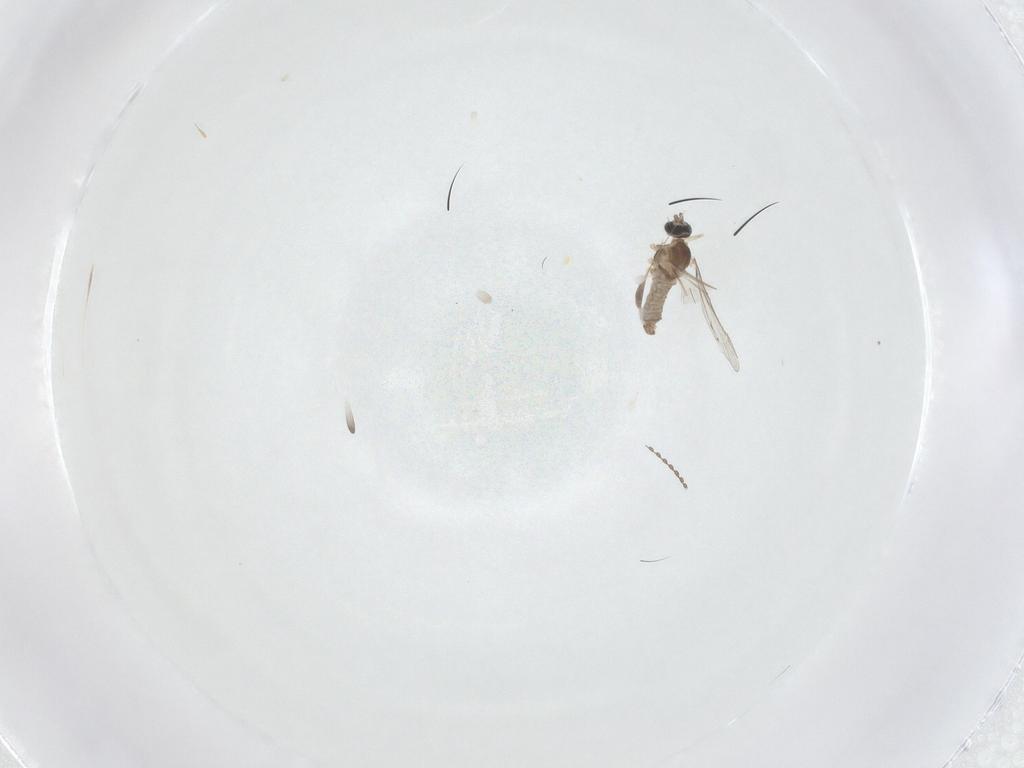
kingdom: Animalia
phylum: Arthropoda
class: Insecta
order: Diptera
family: Cecidomyiidae
